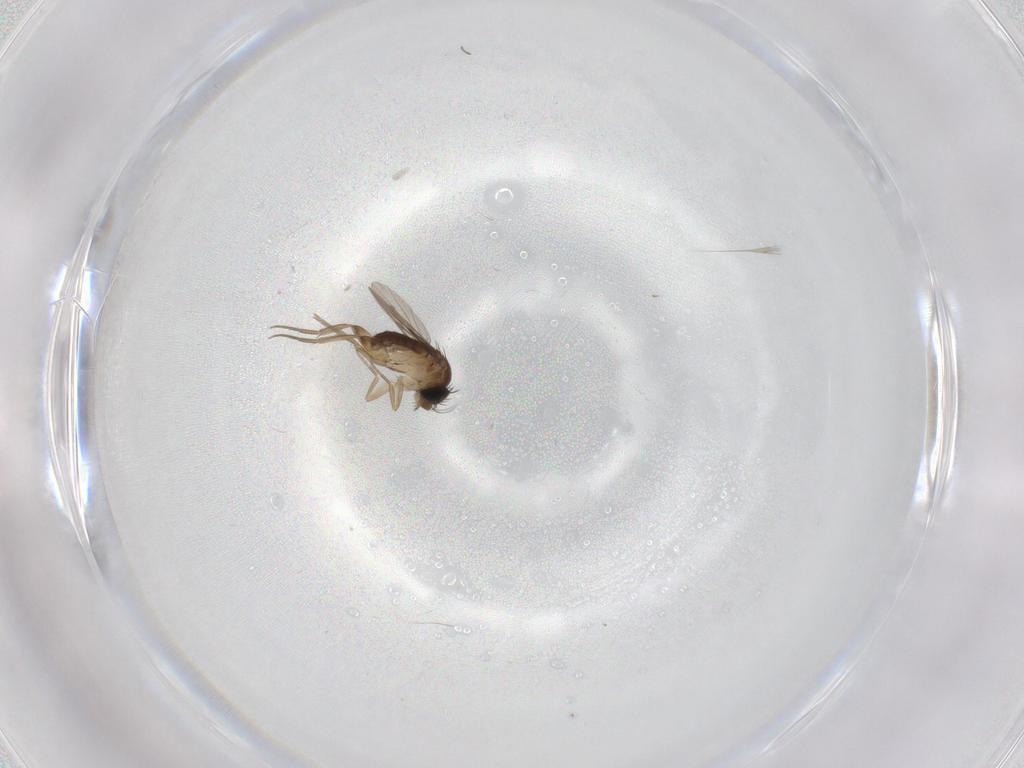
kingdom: Animalia
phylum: Arthropoda
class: Insecta
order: Diptera
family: Phoridae
